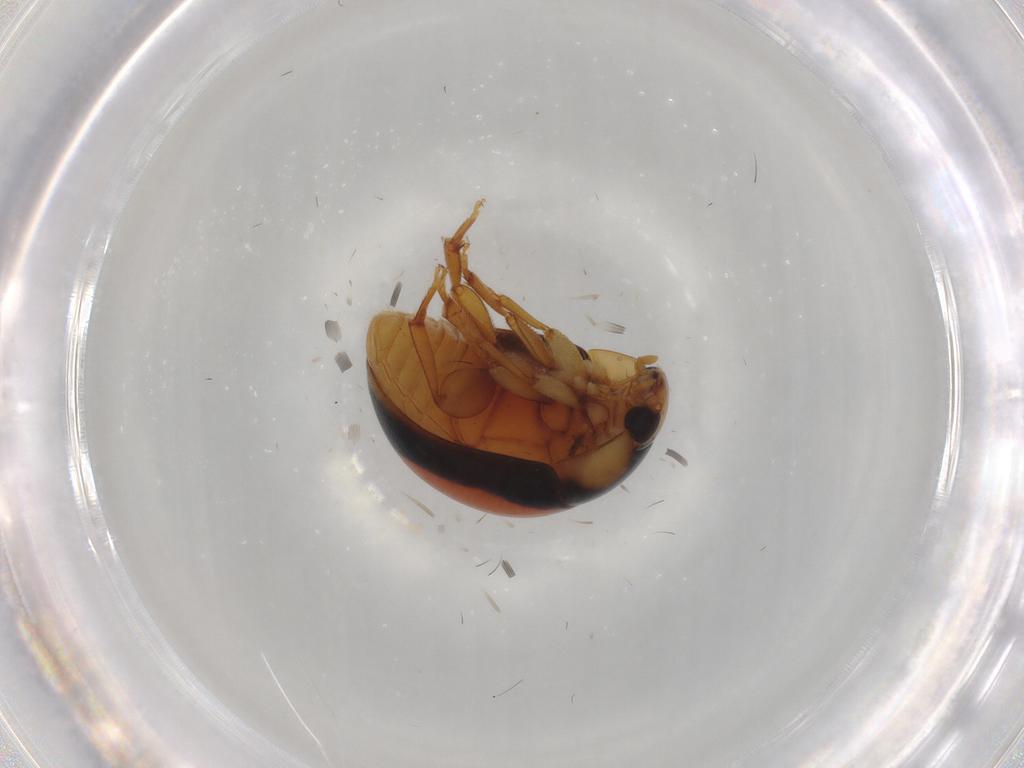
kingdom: Animalia
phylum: Arthropoda
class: Insecta
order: Coleoptera
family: Phalacridae
